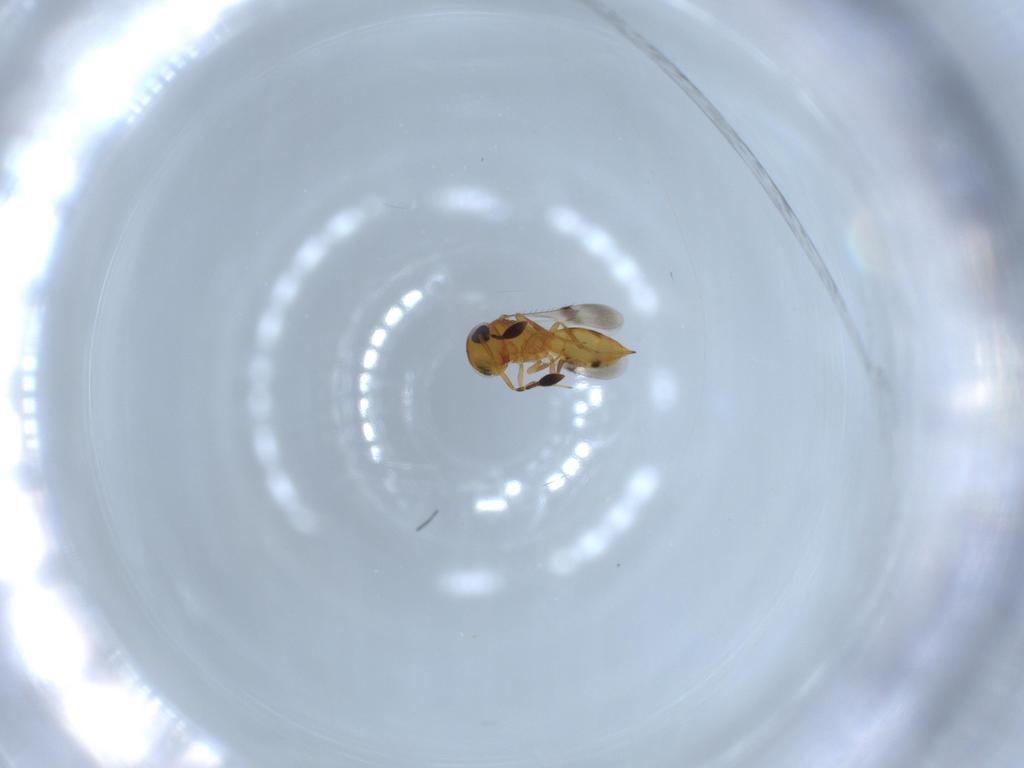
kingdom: Animalia
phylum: Arthropoda
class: Insecta
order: Hymenoptera
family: Scelionidae
